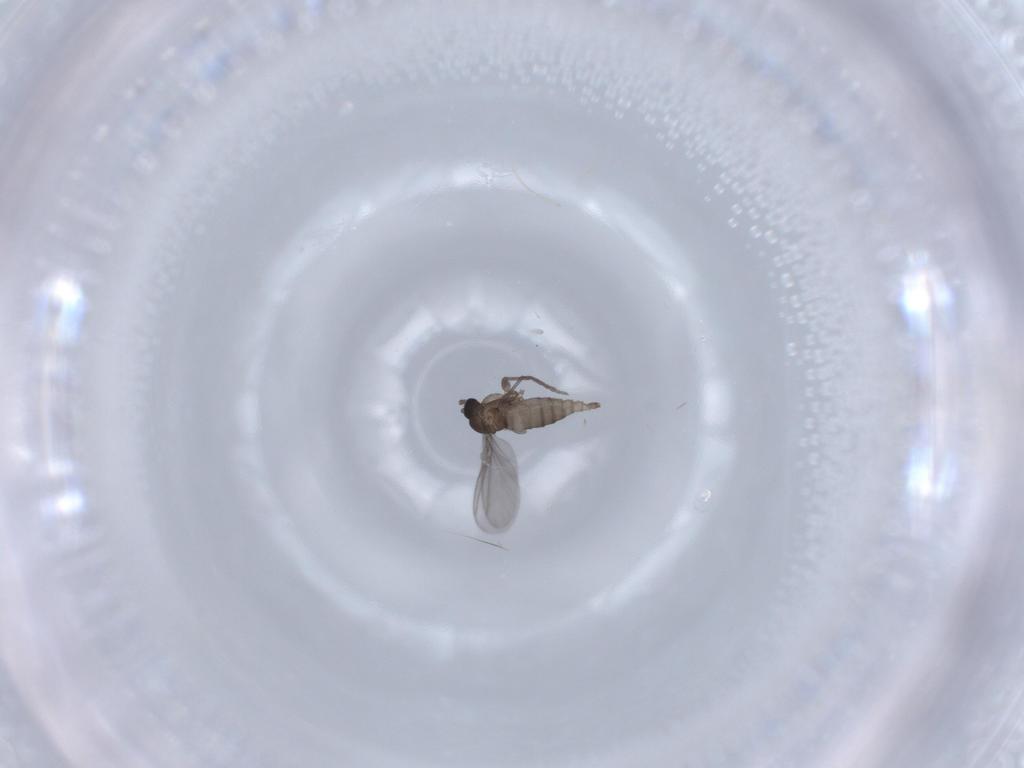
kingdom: Animalia
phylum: Arthropoda
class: Insecta
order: Diptera
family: Sciaridae
